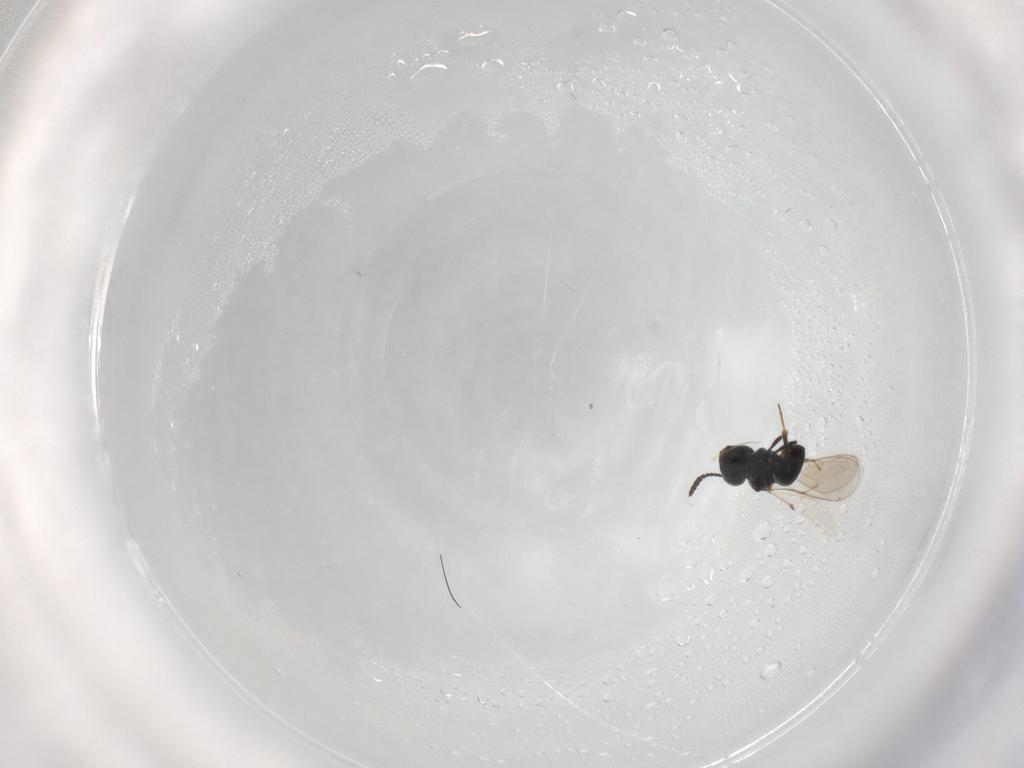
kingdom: Animalia
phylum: Arthropoda
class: Insecta
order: Hymenoptera
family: Scelionidae
